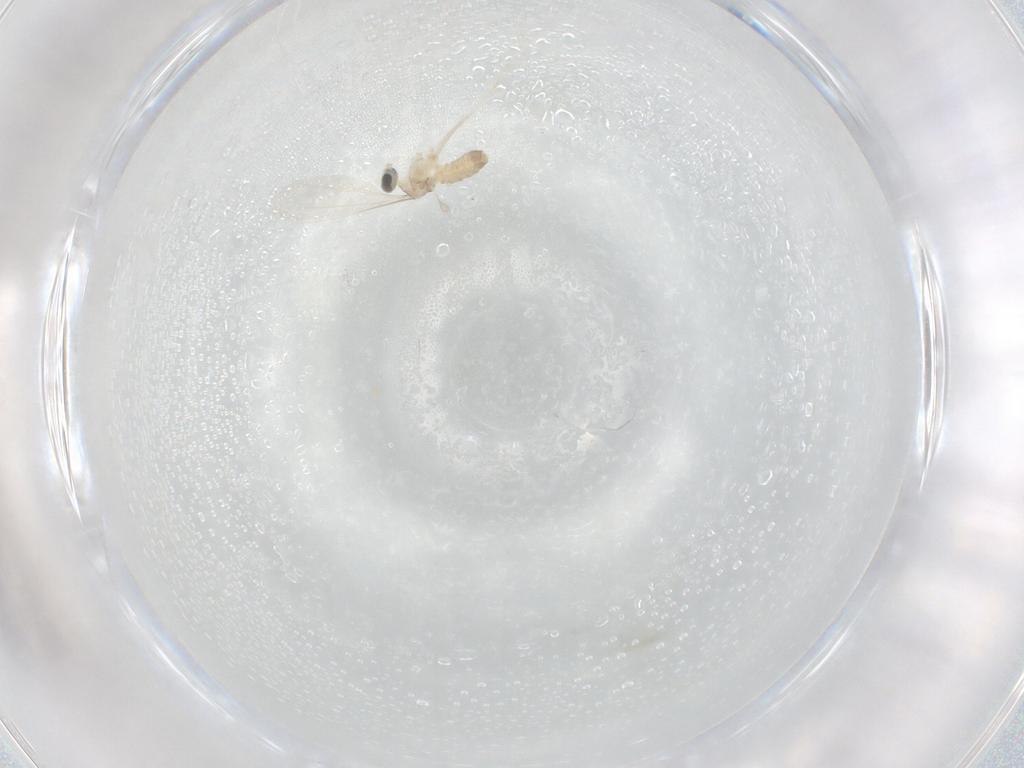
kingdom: Animalia
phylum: Arthropoda
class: Insecta
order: Diptera
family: Cecidomyiidae
